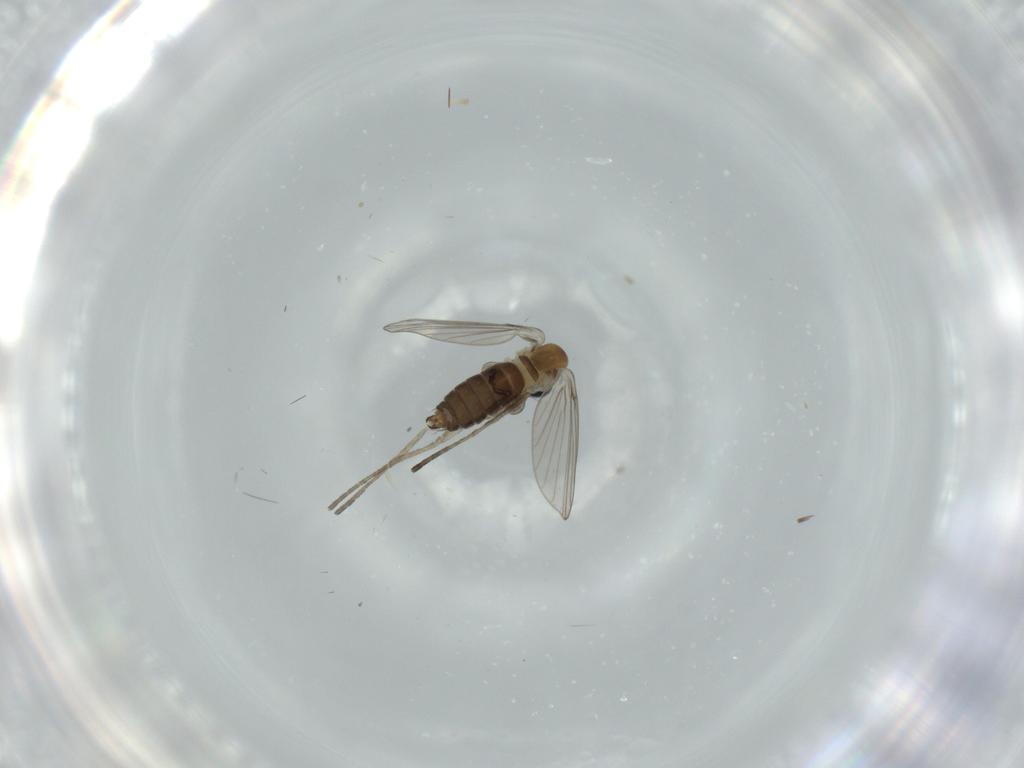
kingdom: Animalia
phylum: Arthropoda
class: Insecta
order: Diptera
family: Psychodidae
